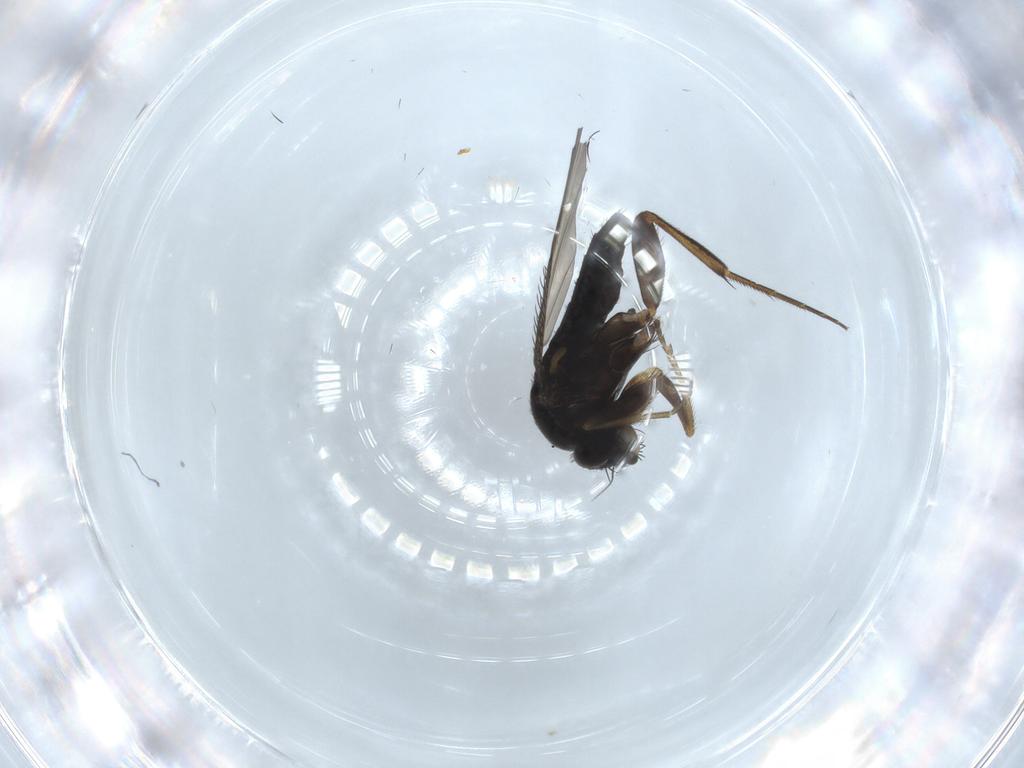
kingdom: Animalia
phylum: Arthropoda
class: Insecta
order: Diptera
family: Phoridae
